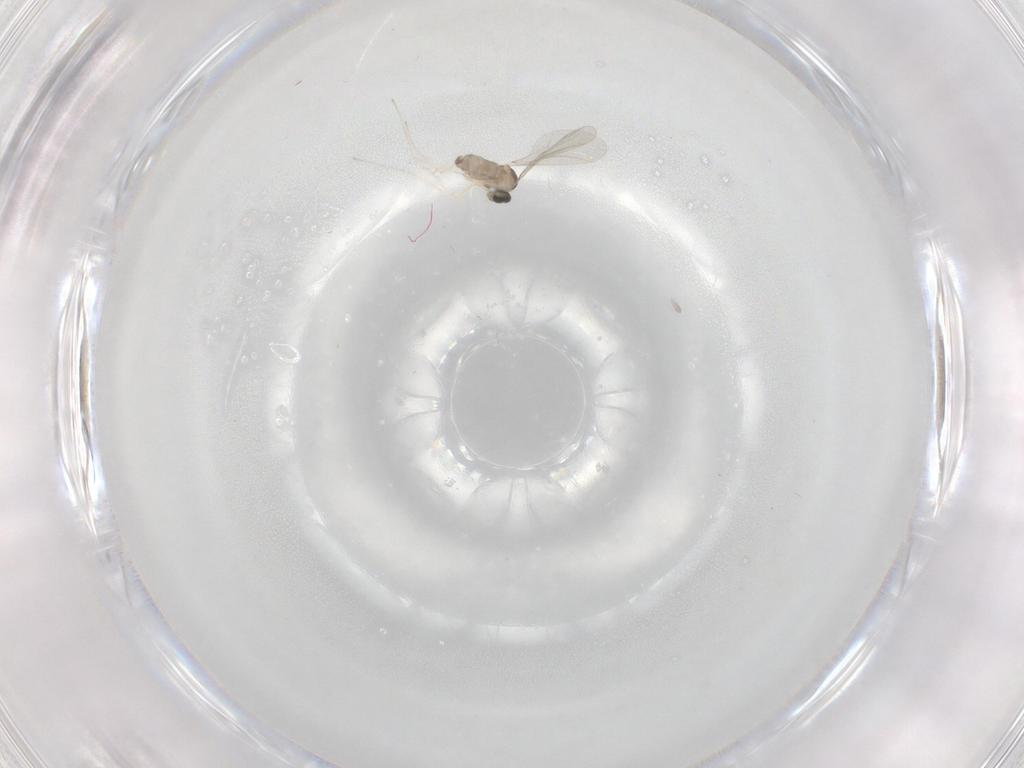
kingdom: Animalia
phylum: Arthropoda
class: Insecta
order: Diptera
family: Cecidomyiidae
